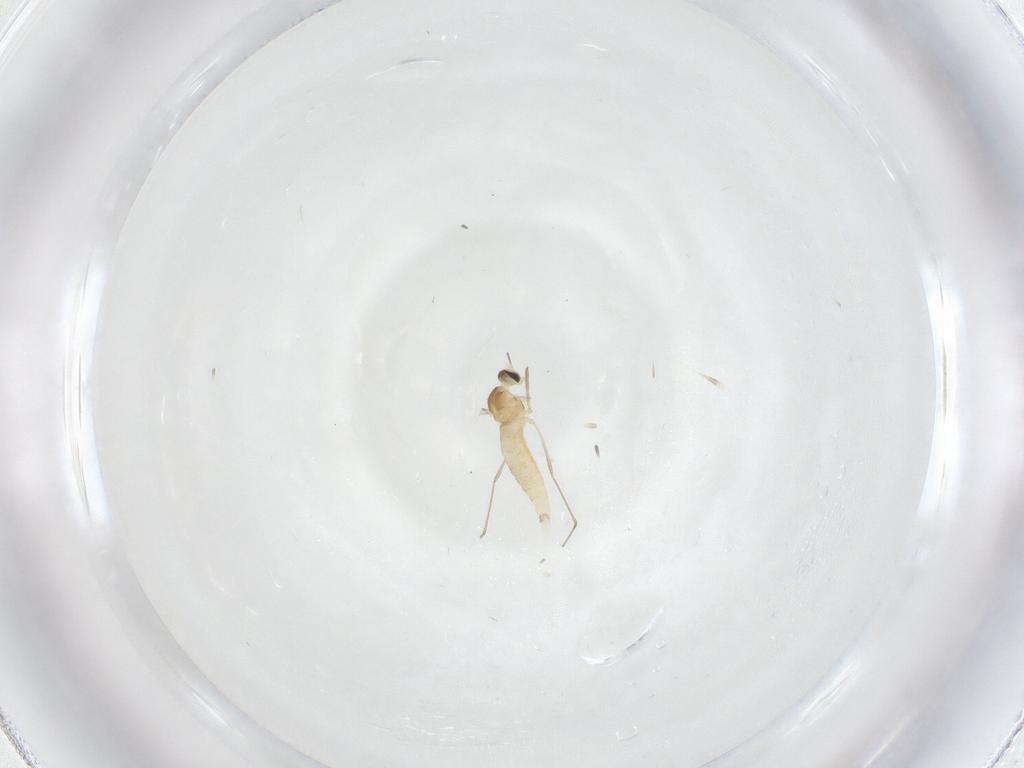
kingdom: Animalia
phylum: Arthropoda
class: Insecta
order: Diptera
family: Cecidomyiidae
